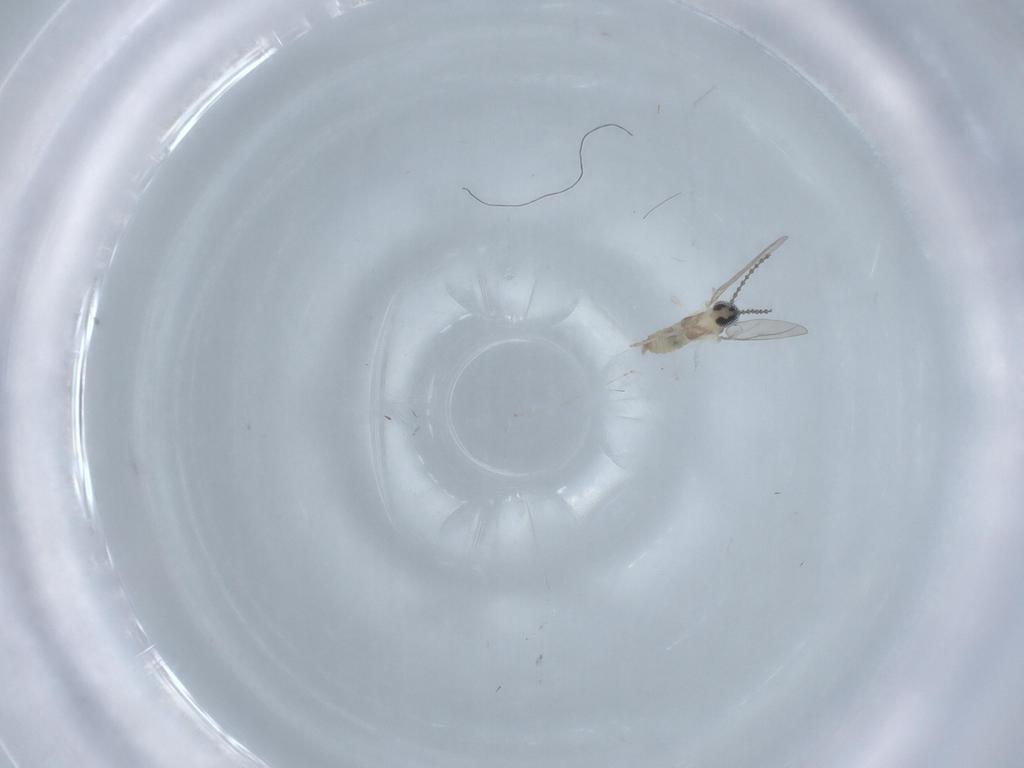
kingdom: Animalia
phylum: Arthropoda
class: Insecta
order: Diptera
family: Cecidomyiidae
